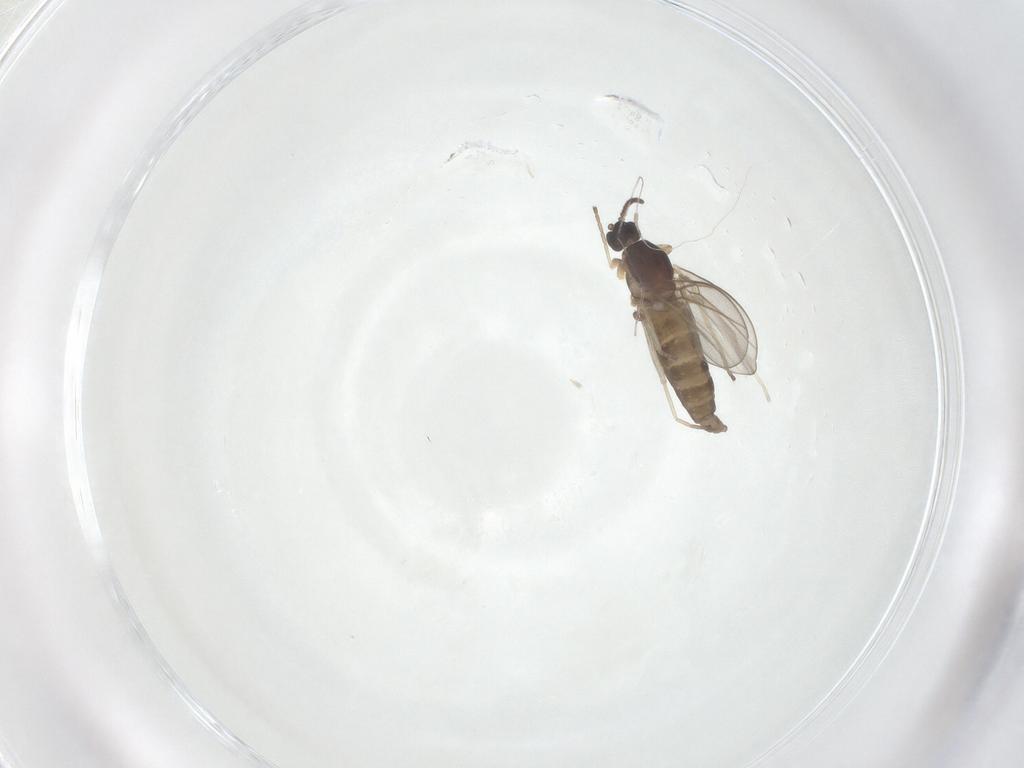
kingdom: Animalia
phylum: Arthropoda
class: Insecta
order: Diptera
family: Cecidomyiidae
